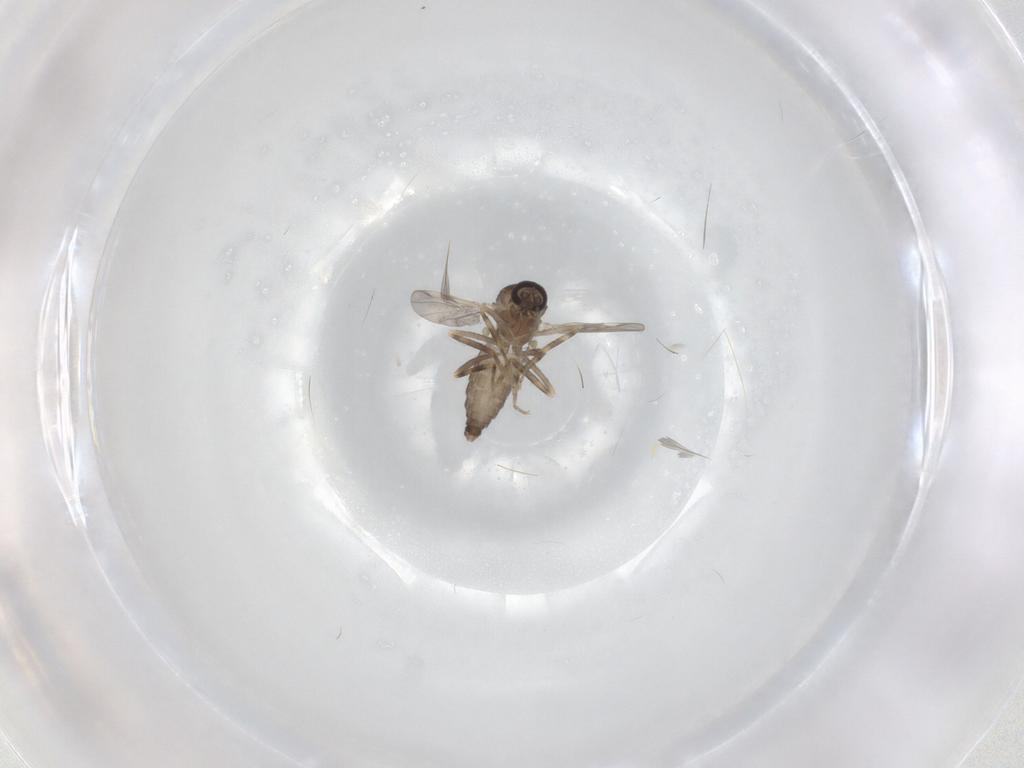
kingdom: Animalia
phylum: Arthropoda
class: Insecta
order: Diptera
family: Ceratopogonidae
